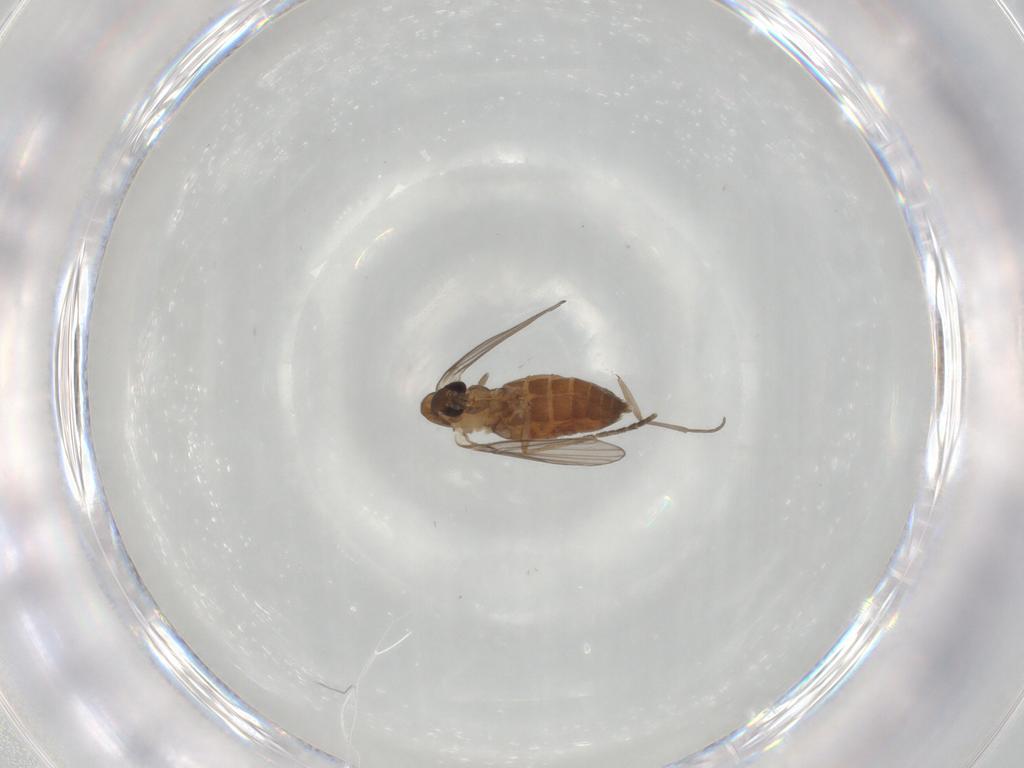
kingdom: Animalia
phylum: Arthropoda
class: Insecta
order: Diptera
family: Sciaridae
